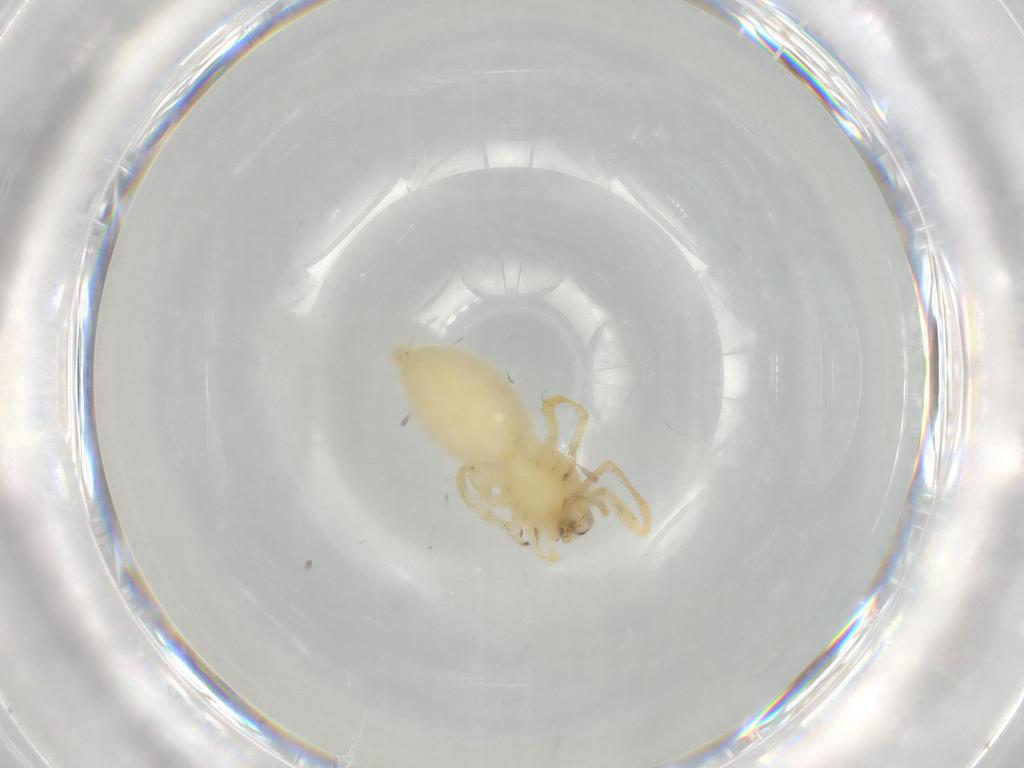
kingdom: Animalia
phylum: Arthropoda
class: Arachnida
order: Araneae
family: Anyphaenidae
